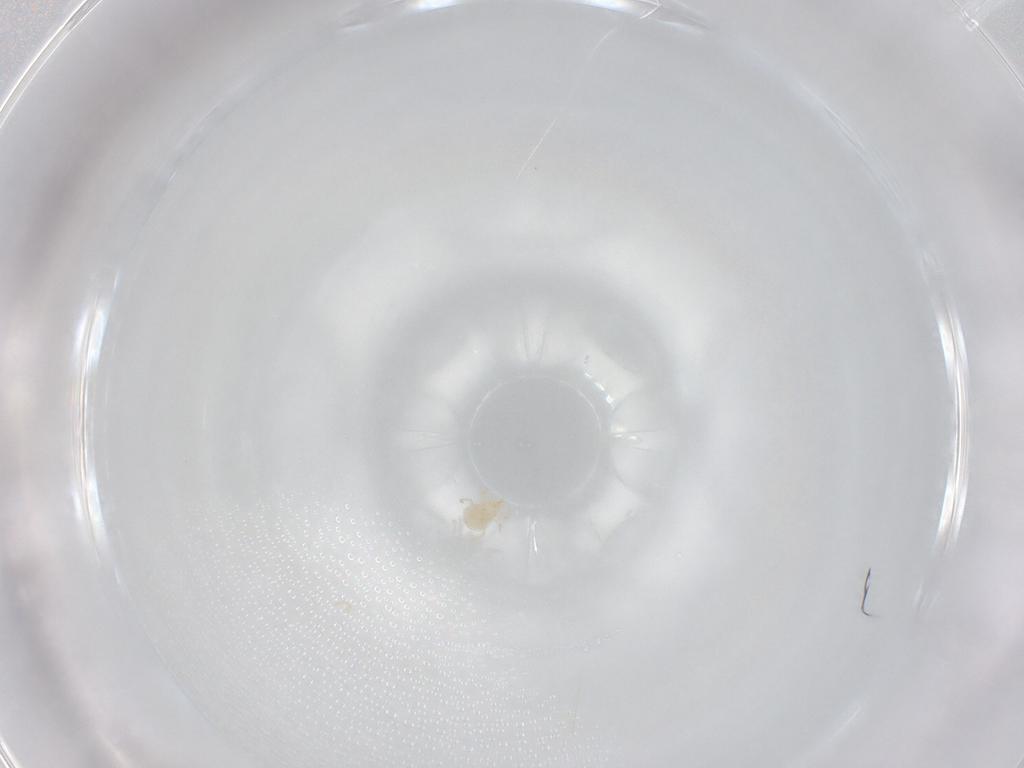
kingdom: Animalia
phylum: Arthropoda
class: Arachnida
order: Mesostigmata
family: Phytoseiidae
